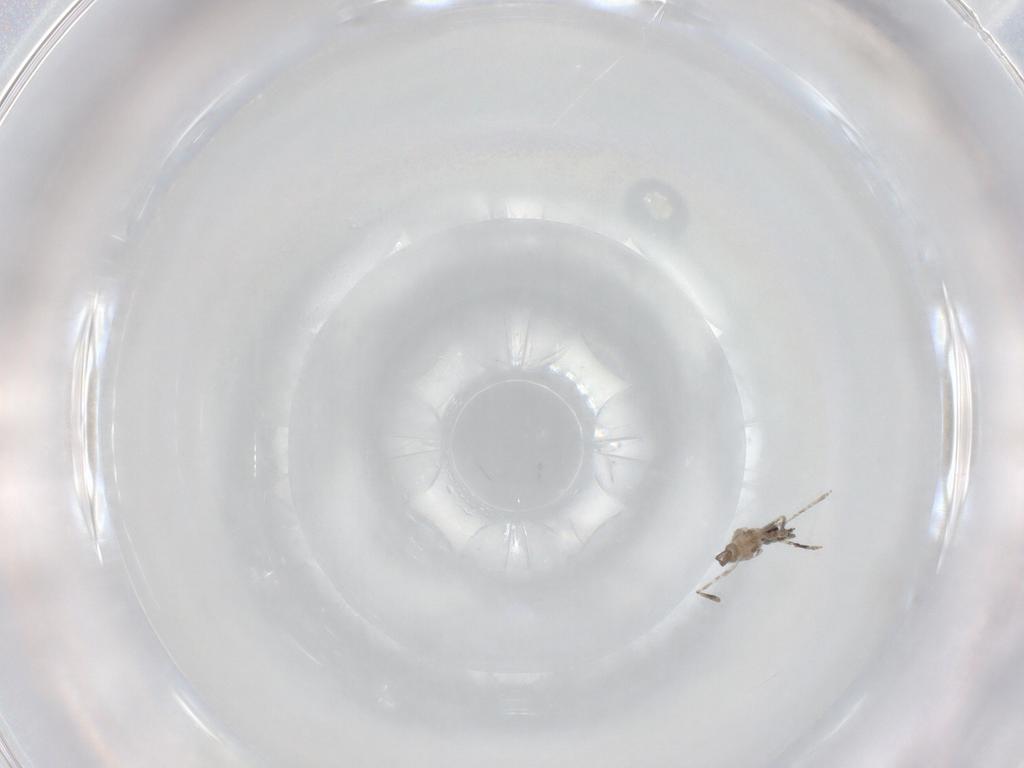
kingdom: Animalia
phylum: Arthropoda
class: Insecta
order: Diptera
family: Cecidomyiidae
